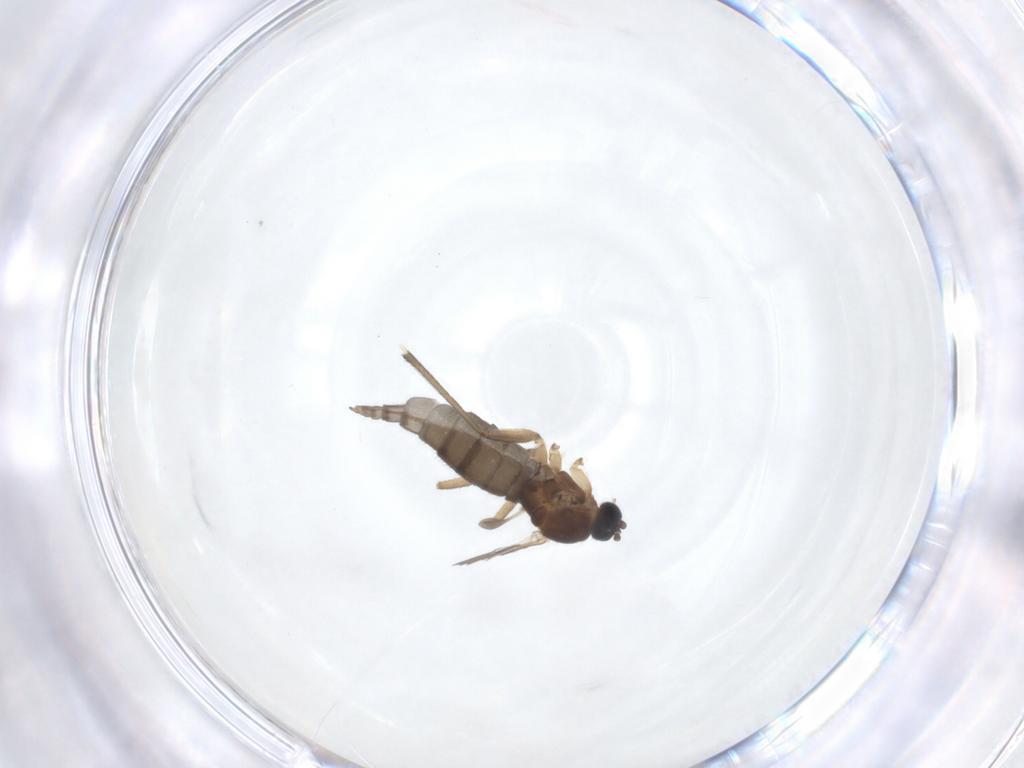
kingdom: Animalia
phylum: Arthropoda
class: Insecta
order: Diptera
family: Sciaridae
